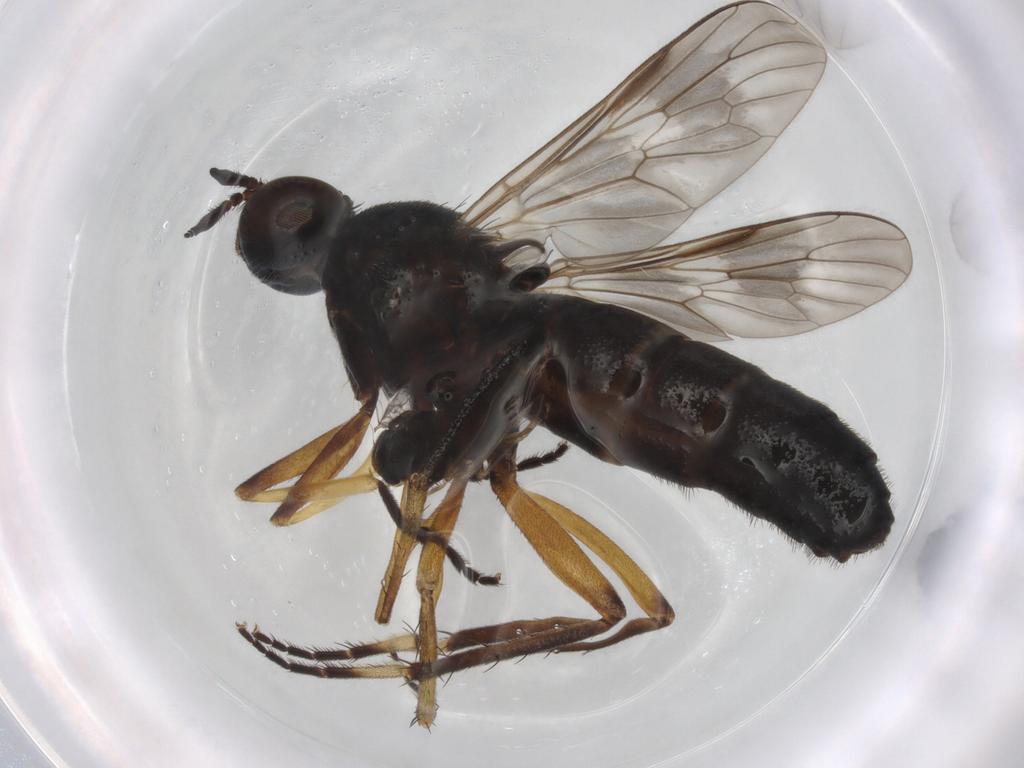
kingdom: Animalia
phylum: Arthropoda
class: Insecta
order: Diptera
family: Therevidae
